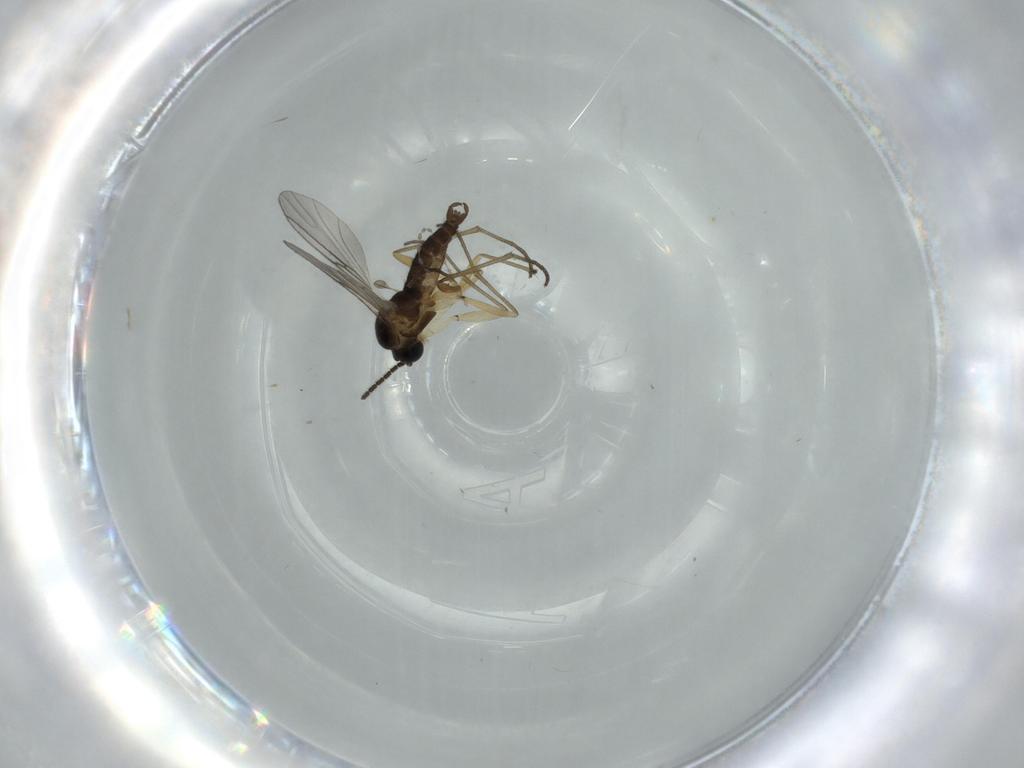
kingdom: Animalia
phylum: Arthropoda
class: Insecta
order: Diptera
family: Cecidomyiidae
